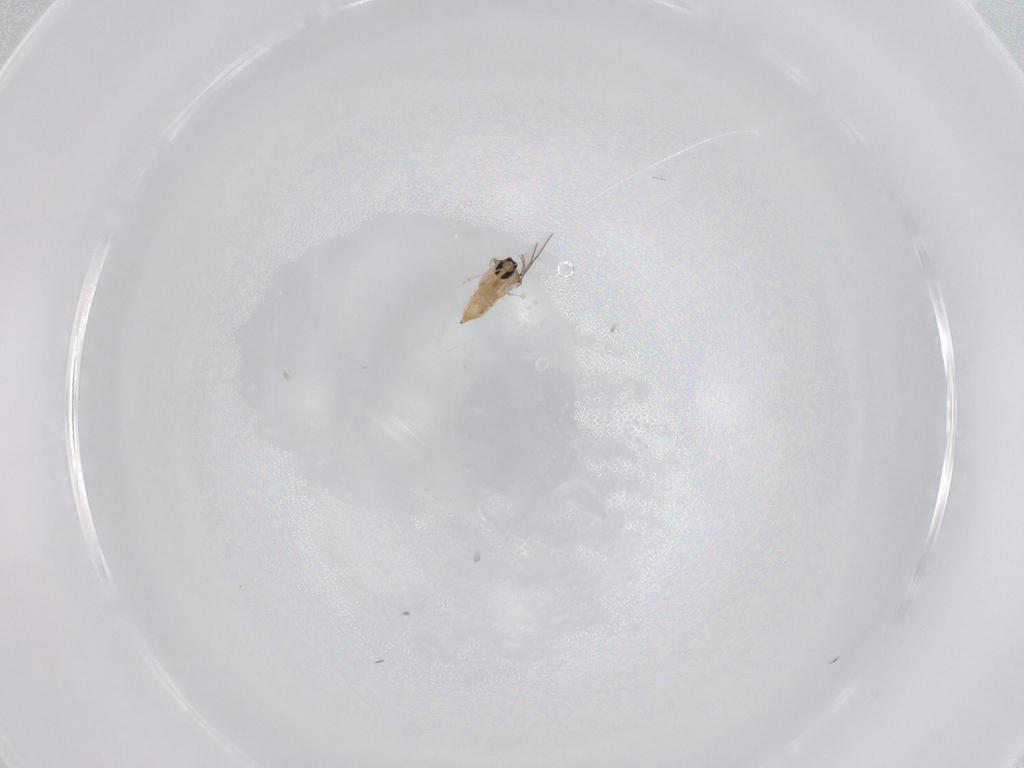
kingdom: Animalia
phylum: Arthropoda
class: Insecta
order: Diptera
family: Cecidomyiidae
